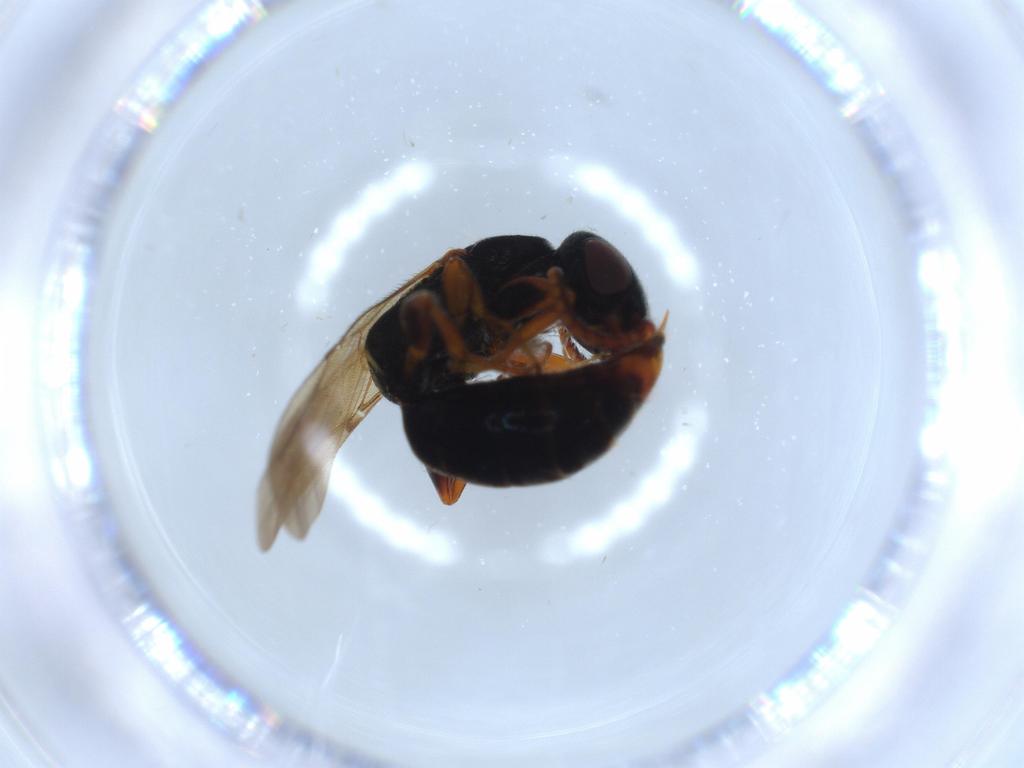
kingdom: Animalia
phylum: Arthropoda
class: Insecta
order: Hymenoptera
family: Bethylidae
